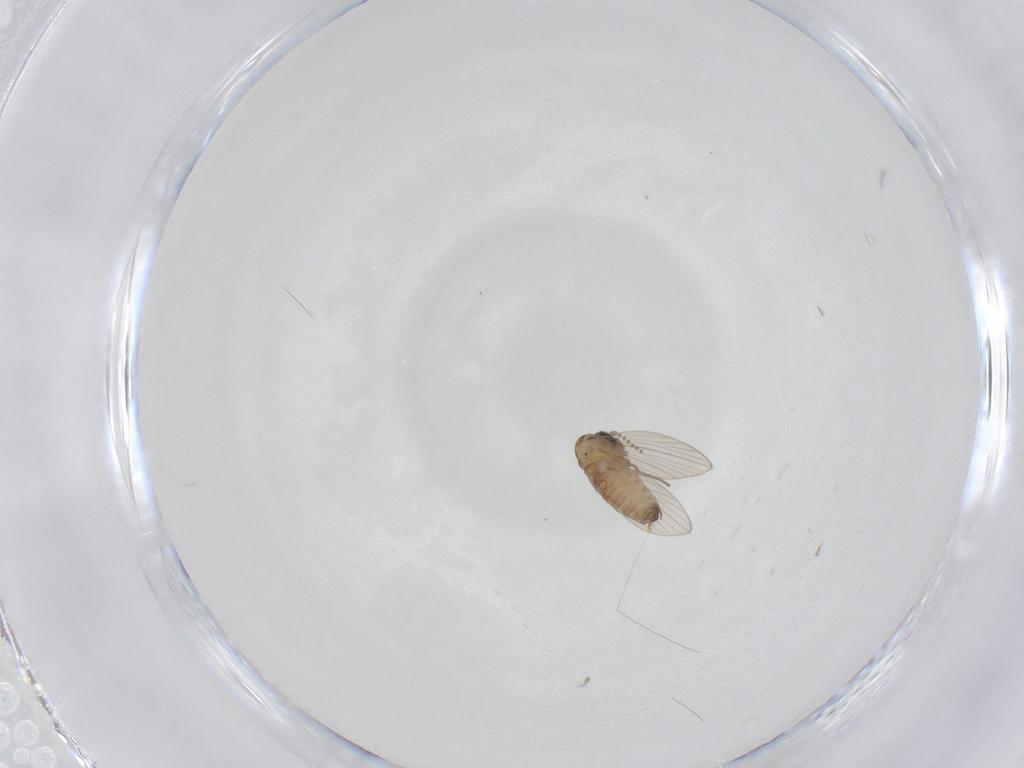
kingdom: Animalia
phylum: Arthropoda
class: Insecta
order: Diptera
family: Psychodidae
